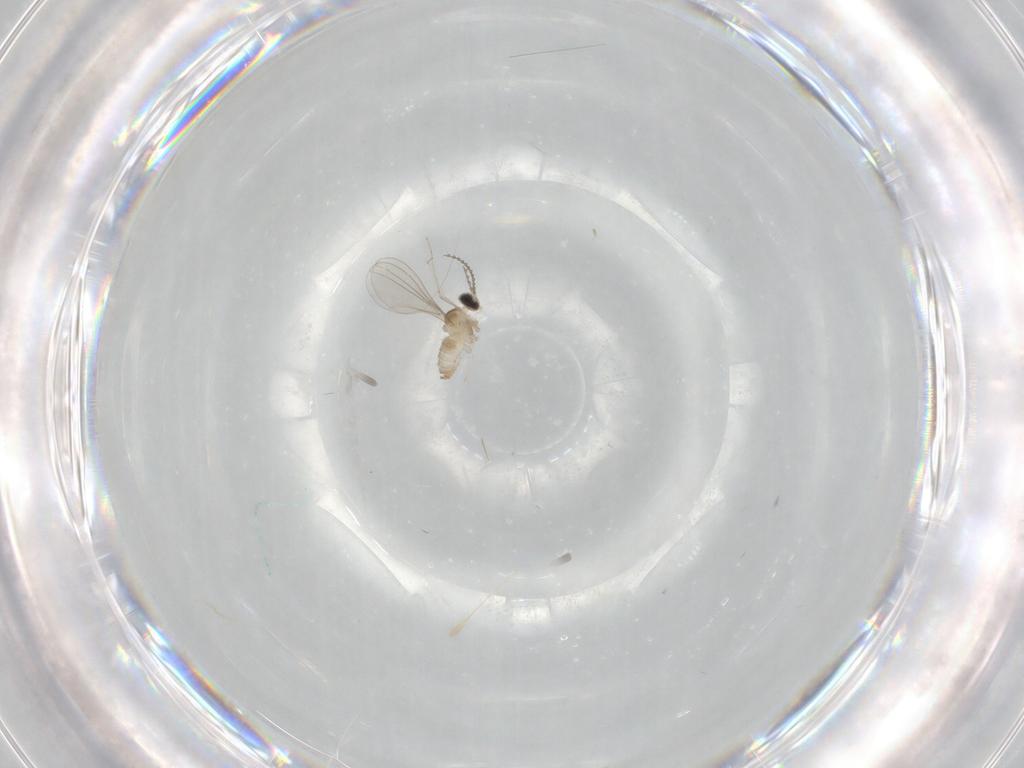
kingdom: Animalia
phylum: Arthropoda
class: Insecta
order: Diptera
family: Cecidomyiidae
